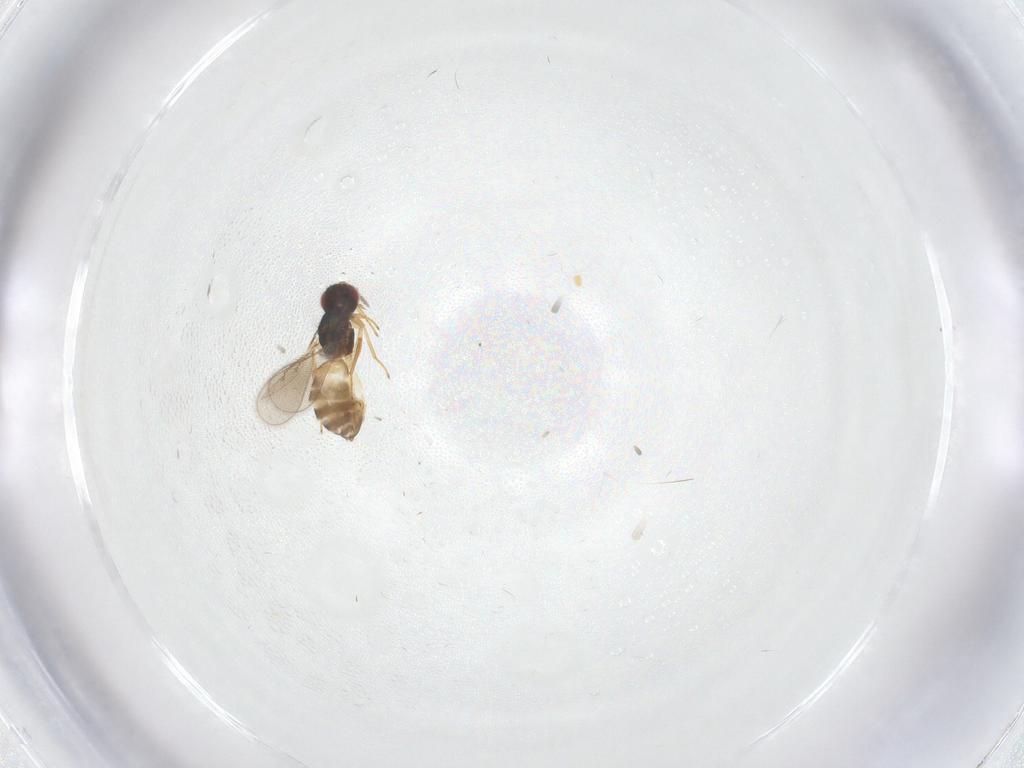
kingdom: Animalia
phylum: Arthropoda
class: Insecta
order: Hymenoptera
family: Eulophidae
